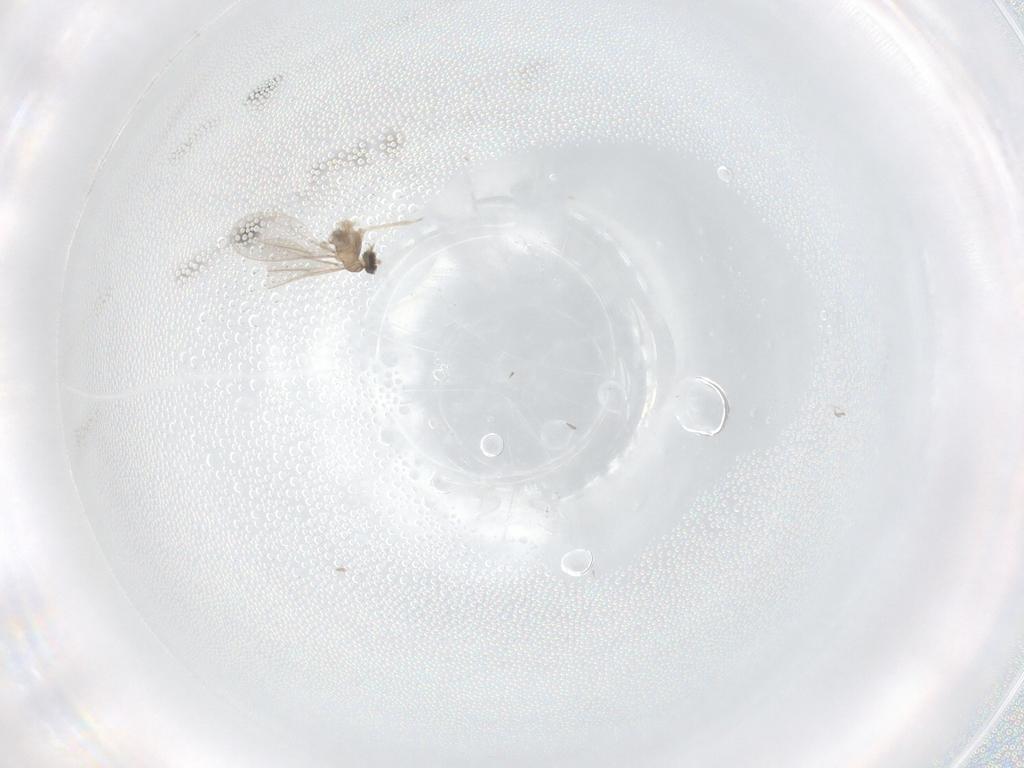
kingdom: Animalia
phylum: Arthropoda
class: Insecta
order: Diptera
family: Cecidomyiidae
